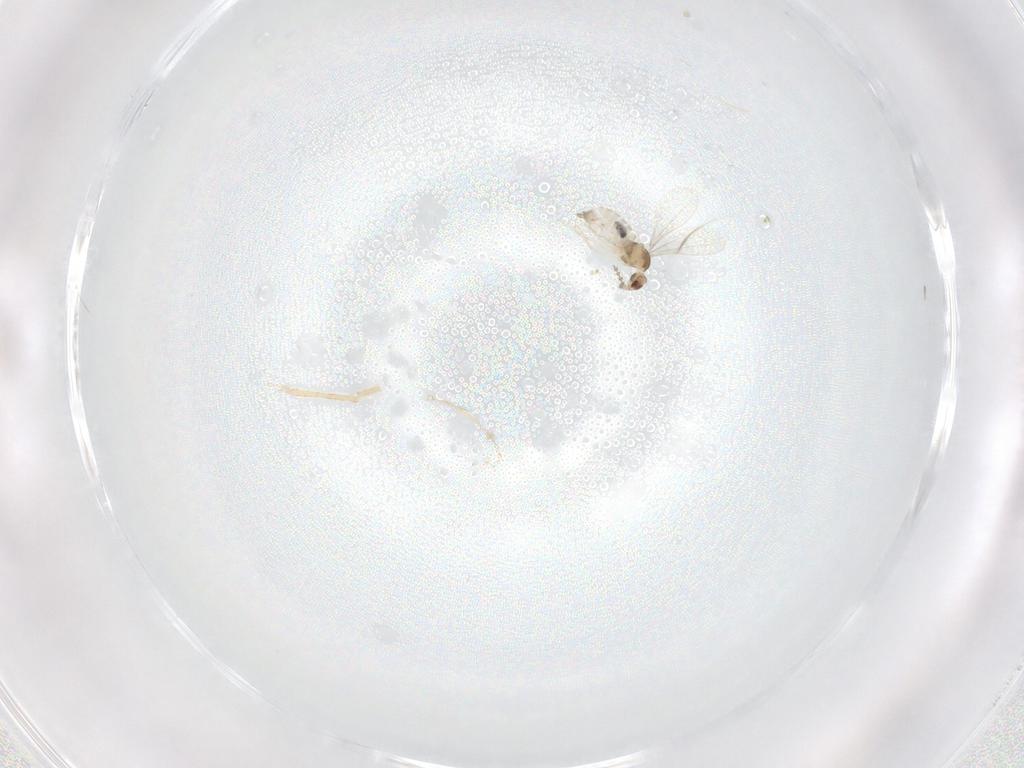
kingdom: Animalia
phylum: Arthropoda
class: Insecta
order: Diptera
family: Cecidomyiidae
